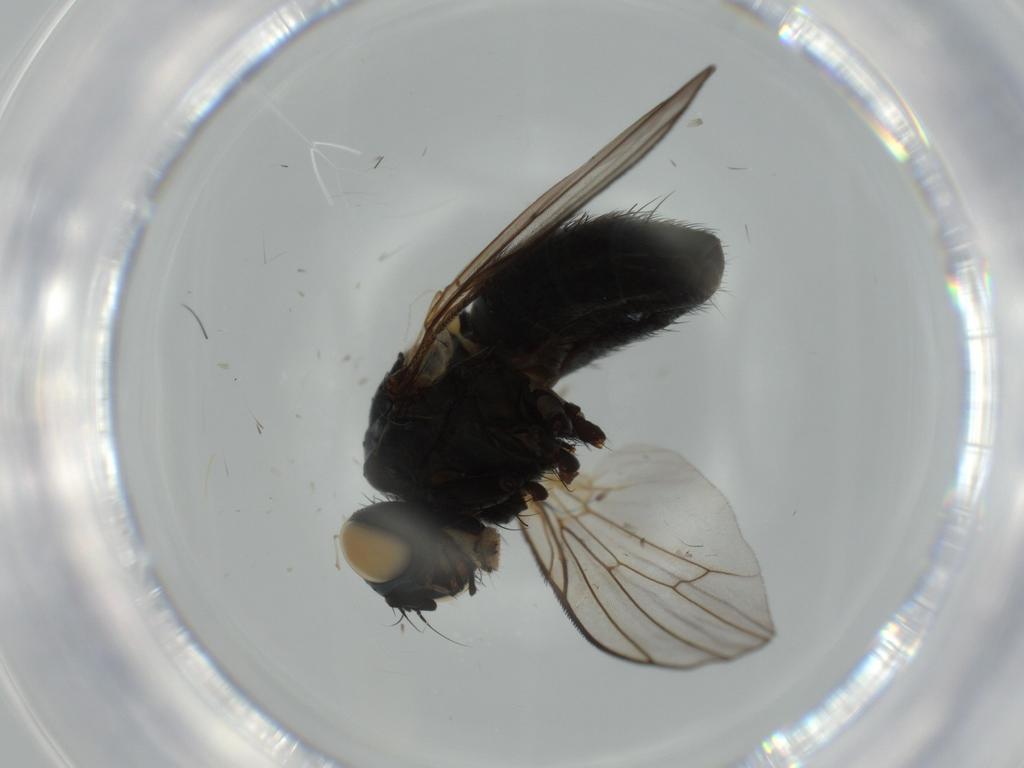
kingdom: Animalia
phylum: Arthropoda
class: Insecta
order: Diptera
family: Muscidae
